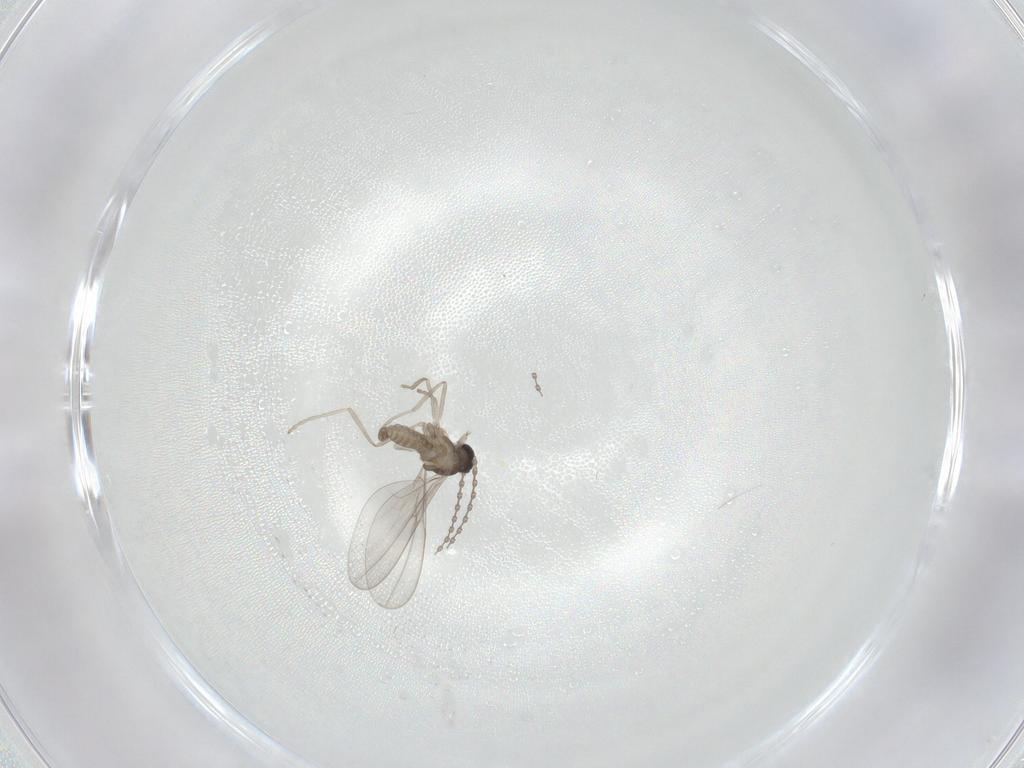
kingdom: Animalia
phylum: Arthropoda
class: Insecta
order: Diptera
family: Cecidomyiidae
